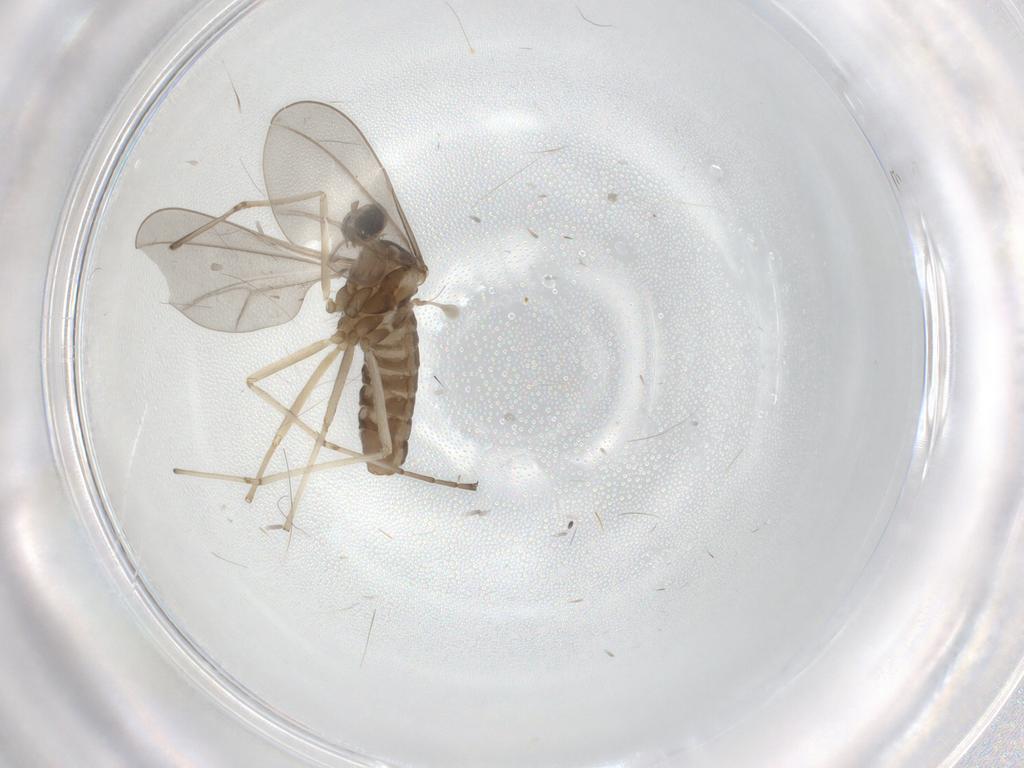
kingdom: Animalia
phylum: Arthropoda
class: Insecta
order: Diptera
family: Cecidomyiidae
